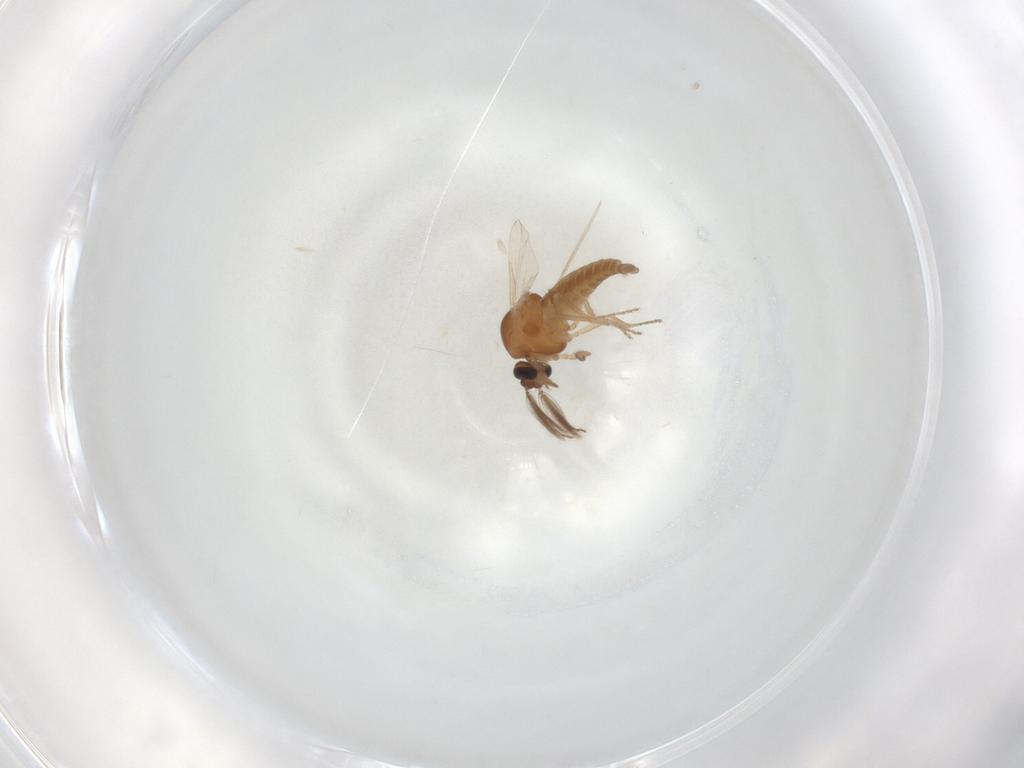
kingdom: Animalia
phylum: Arthropoda
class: Insecta
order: Diptera
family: Ceratopogonidae
